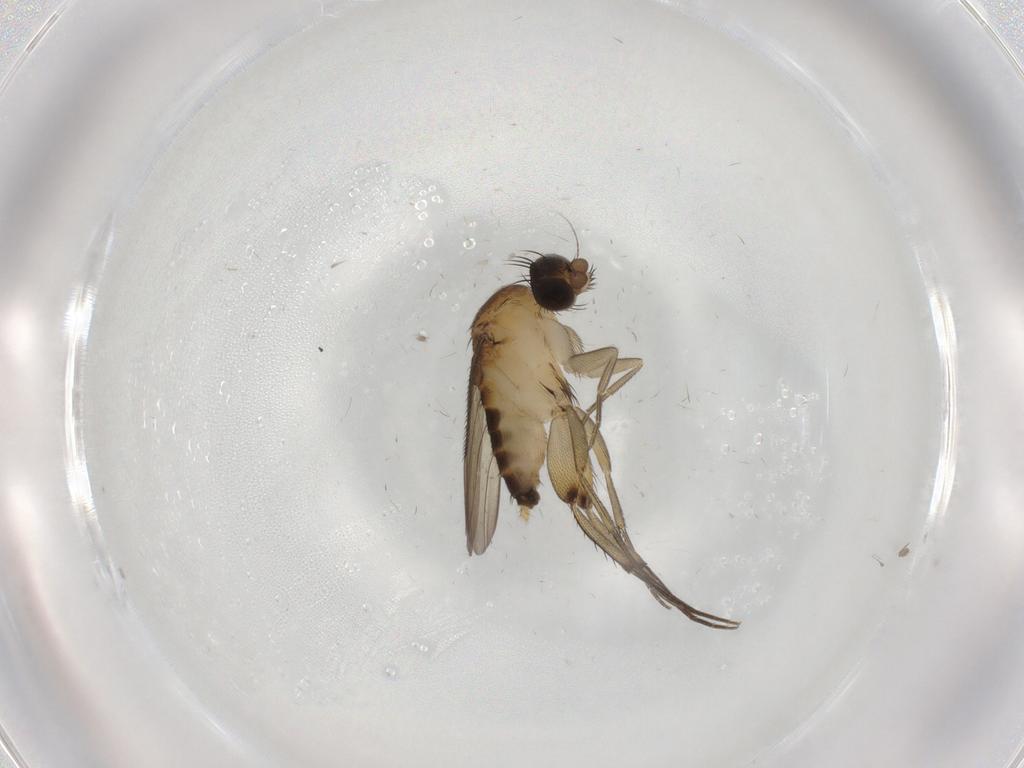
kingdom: Animalia
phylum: Arthropoda
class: Insecta
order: Diptera
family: Phoridae
